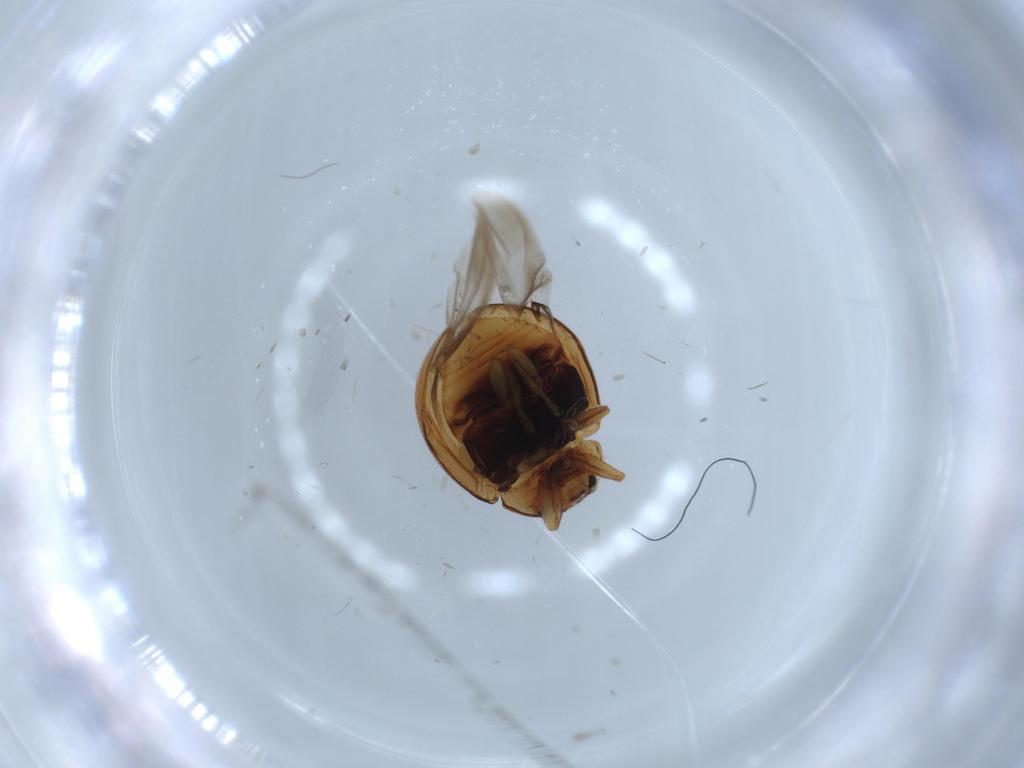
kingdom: Animalia
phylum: Arthropoda
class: Insecta
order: Coleoptera
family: Coccinellidae
